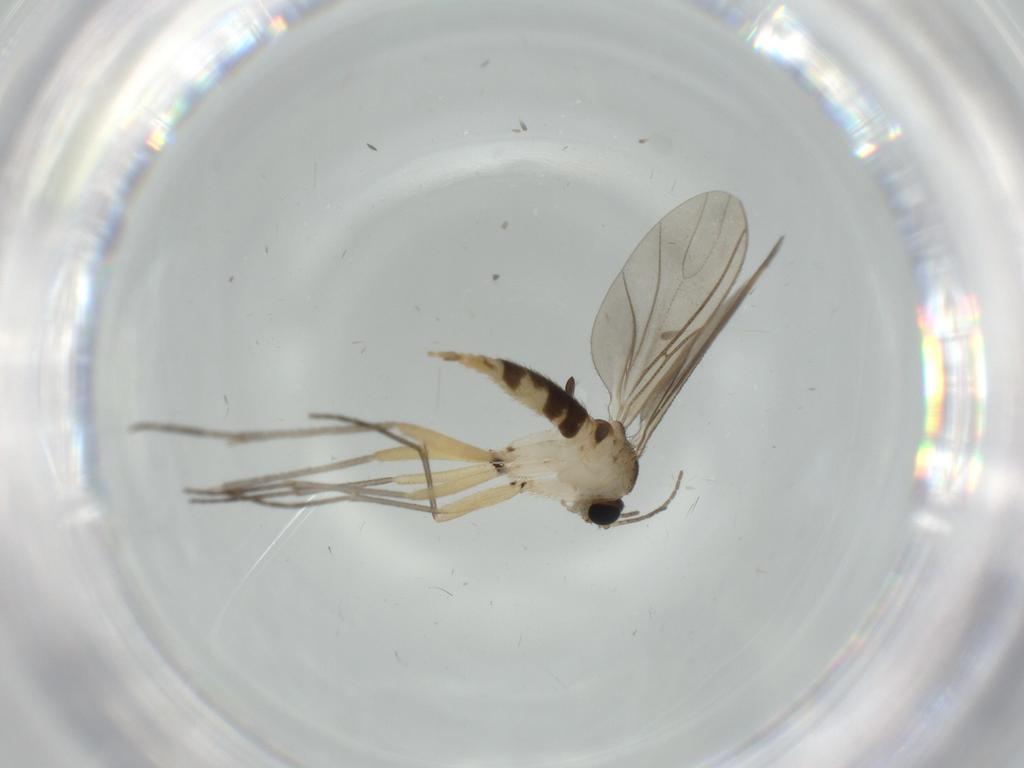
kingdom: Animalia
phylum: Arthropoda
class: Insecta
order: Diptera
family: Sciaridae
